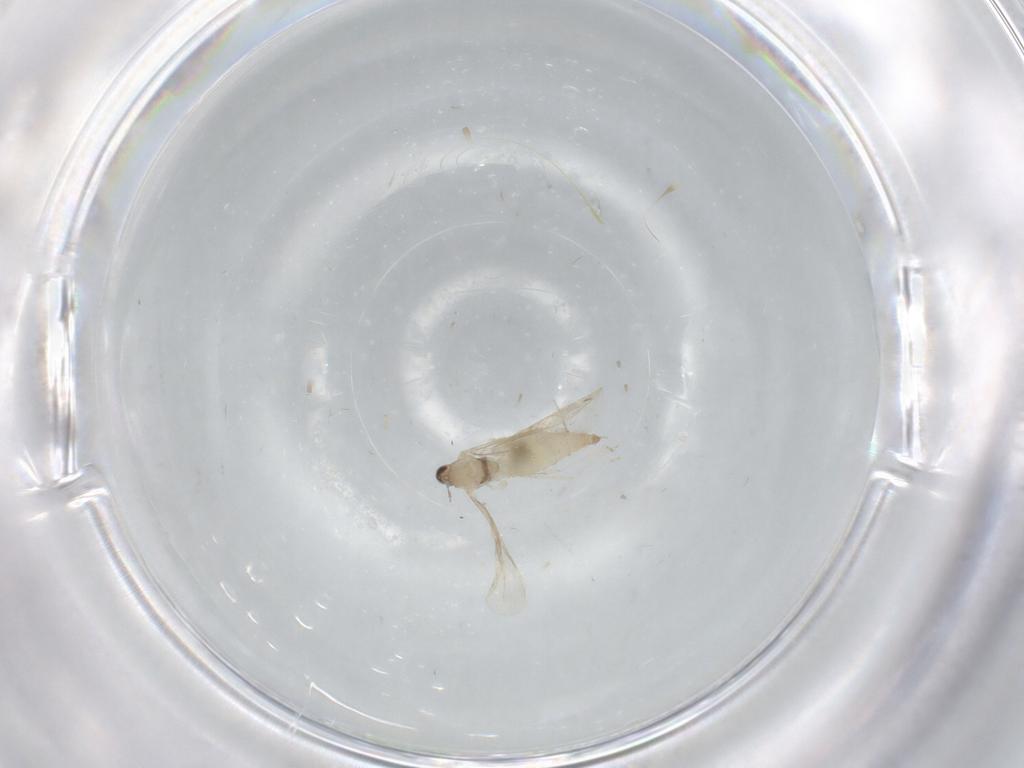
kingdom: Animalia
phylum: Arthropoda
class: Insecta
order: Diptera
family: Cecidomyiidae
